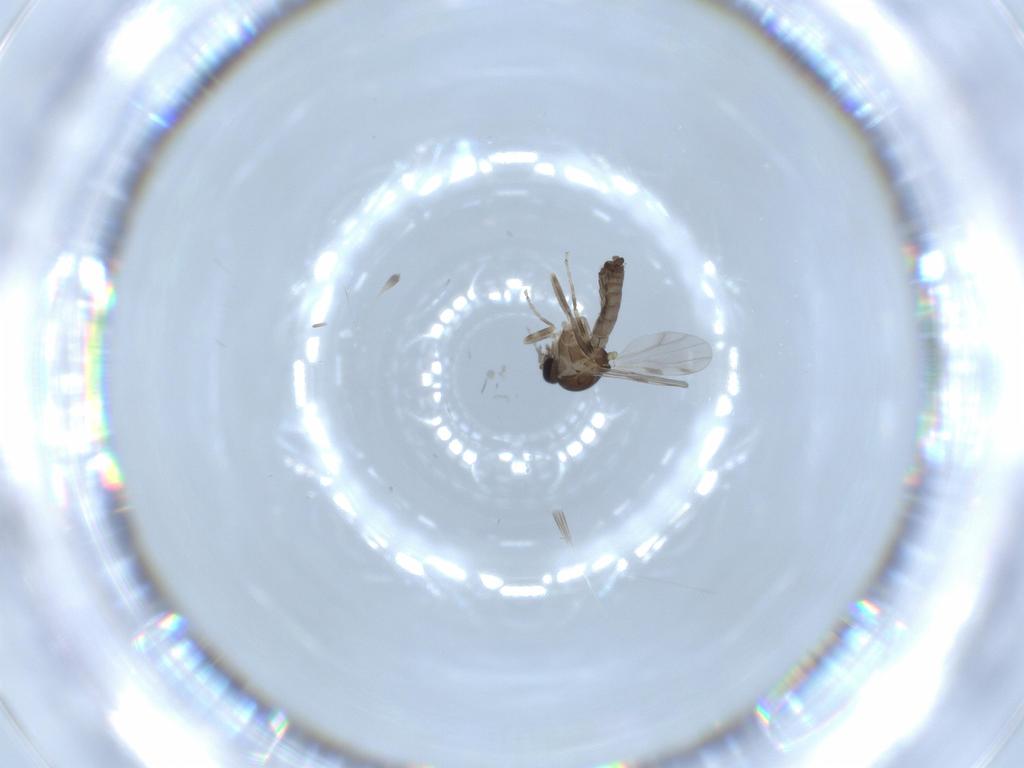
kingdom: Animalia
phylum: Arthropoda
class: Insecta
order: Diptera
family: Ceratopogonidae
